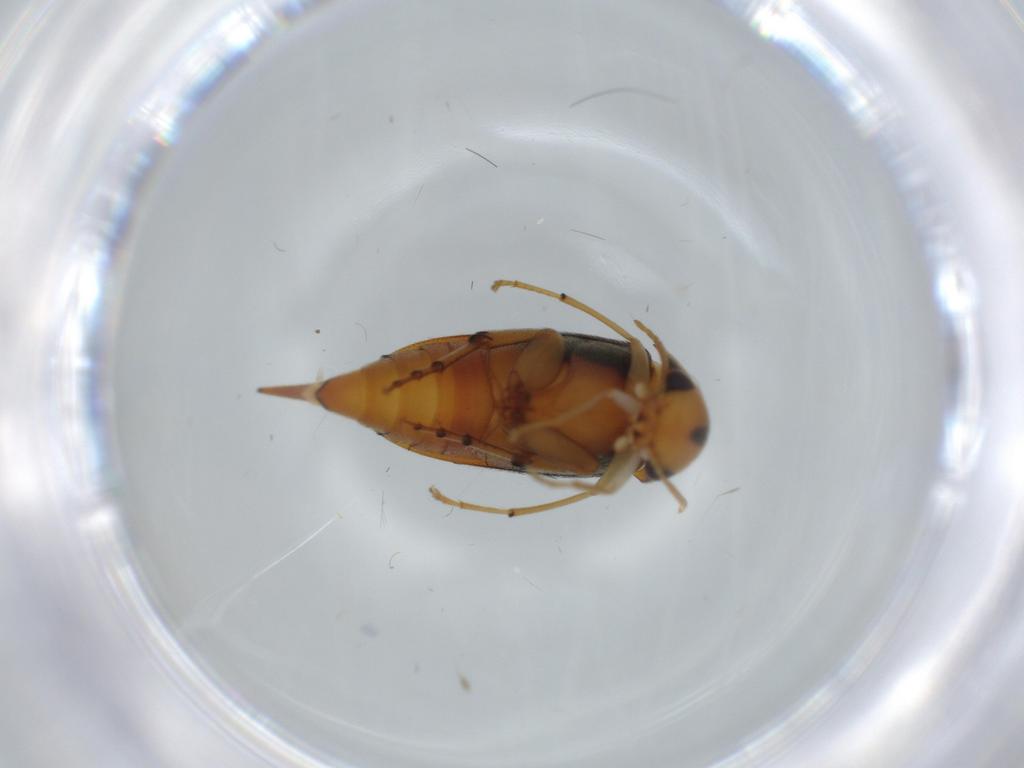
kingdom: Animalia
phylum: Arthropoda
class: Insecta
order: Coleoptera
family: Mordellidae
